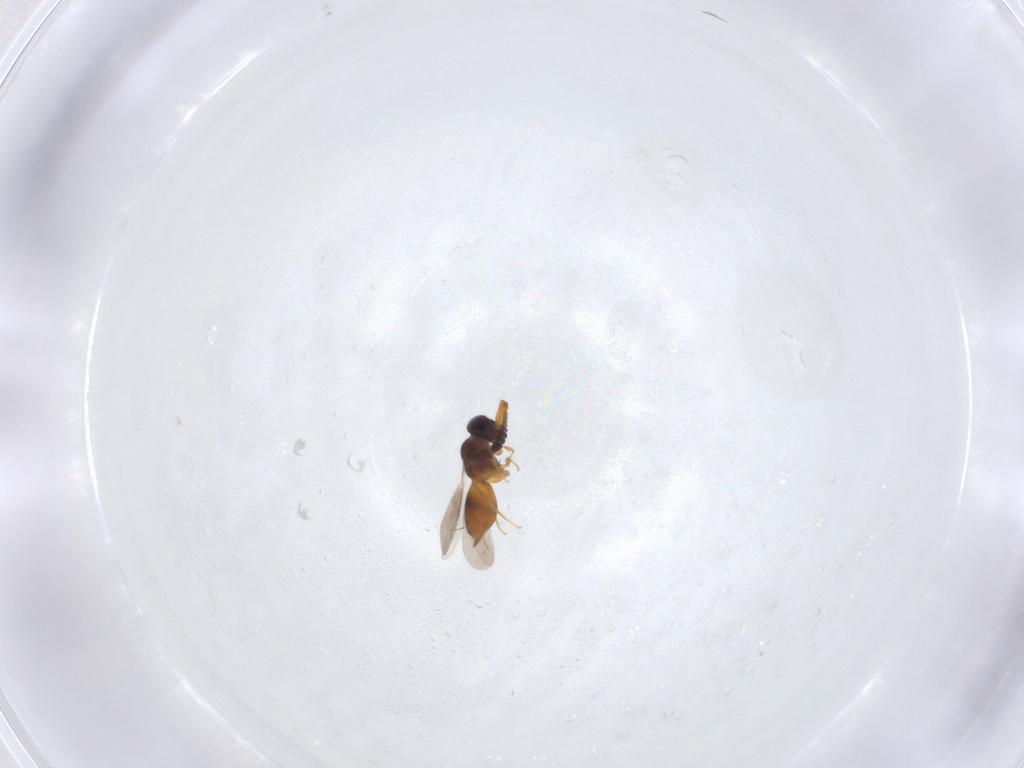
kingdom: Animalia
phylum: Arthropoda
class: Insecta
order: Hymenoptera
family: Ceraphronidae
